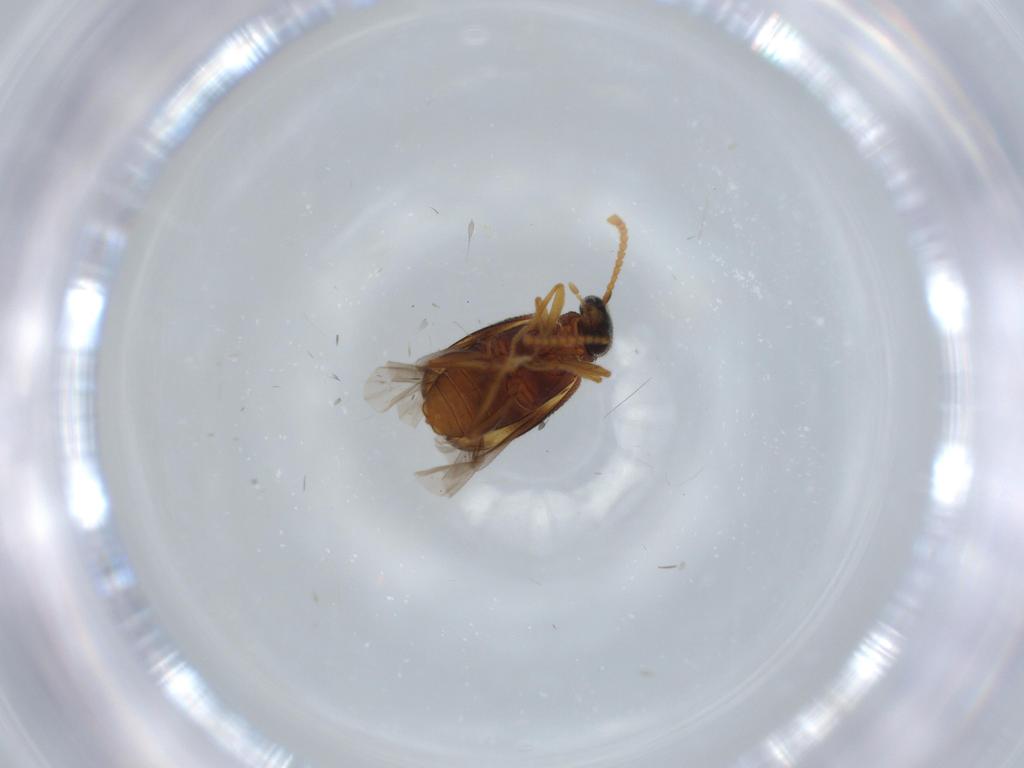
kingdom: Animalia
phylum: Arthropoda
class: Insecta
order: Coleoptera
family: Aderidae
